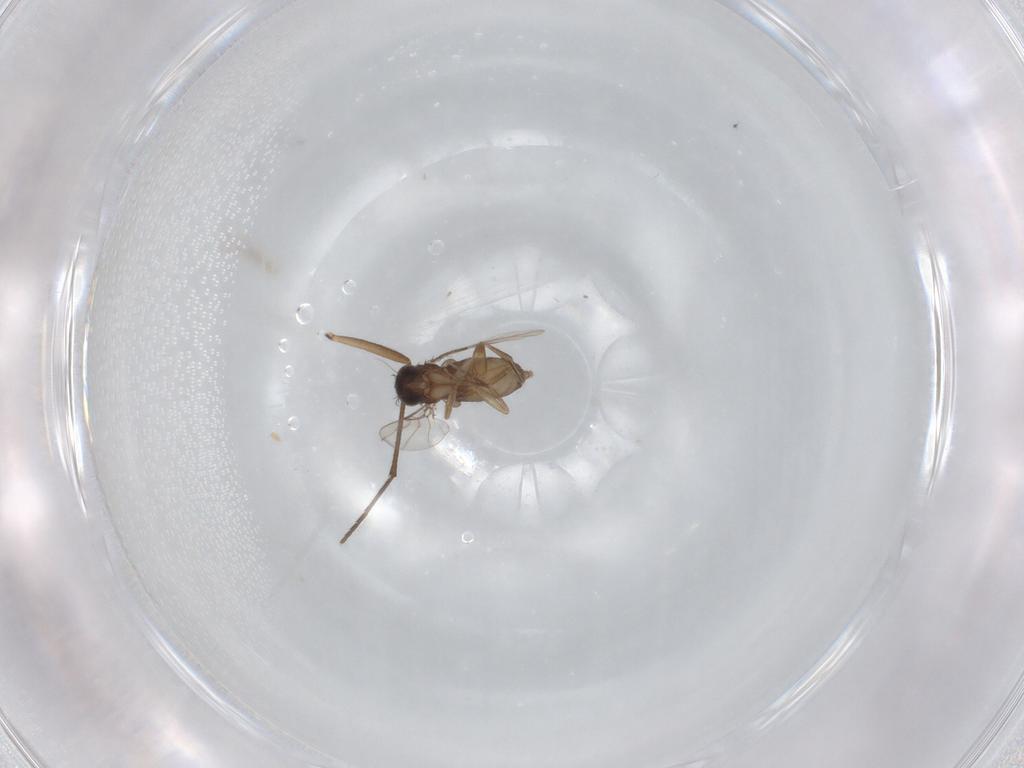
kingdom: Animalia
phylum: Arthropoda
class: Insecta
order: Diptera
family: Phoridae
